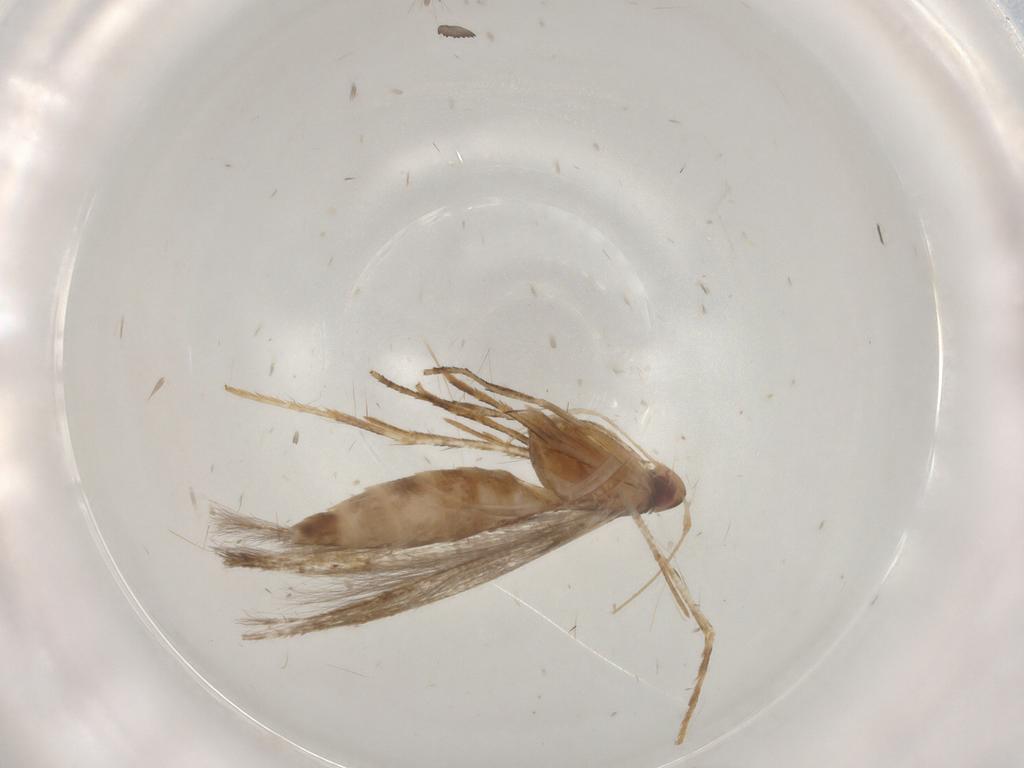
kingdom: Animalia
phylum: Arthropoda
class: Insecta
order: Lepidoptera
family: Cosmopterigidae
